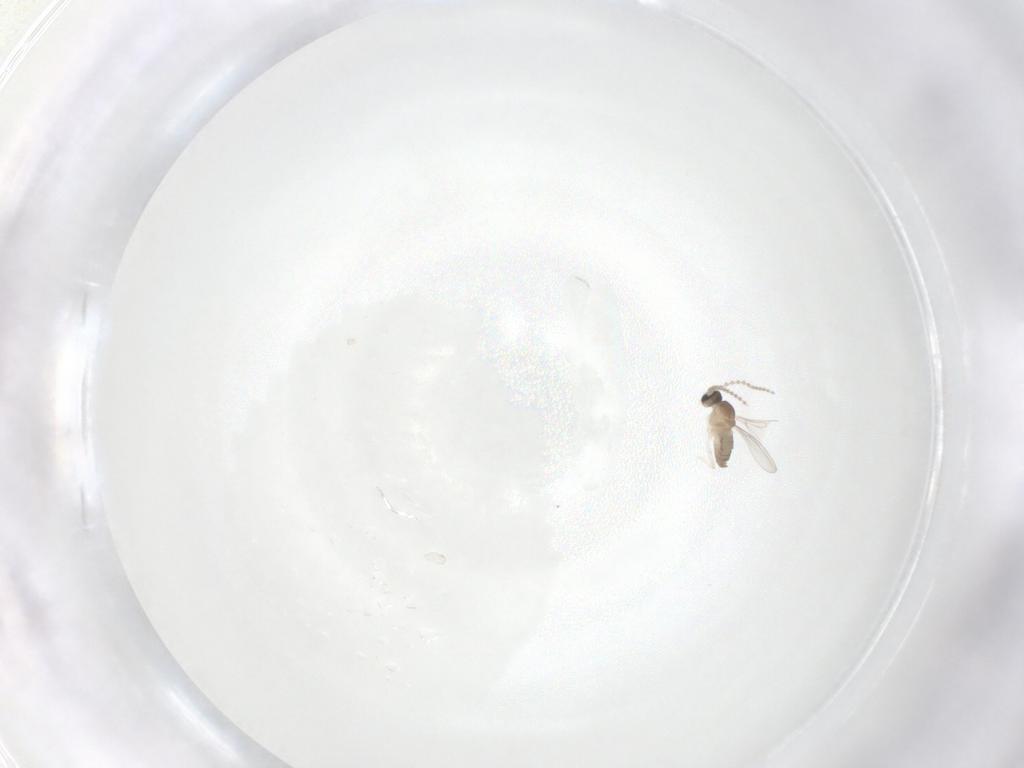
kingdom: Animalia
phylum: Arthropoda
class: Insecta
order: Diptera
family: Cecidomyiidae
